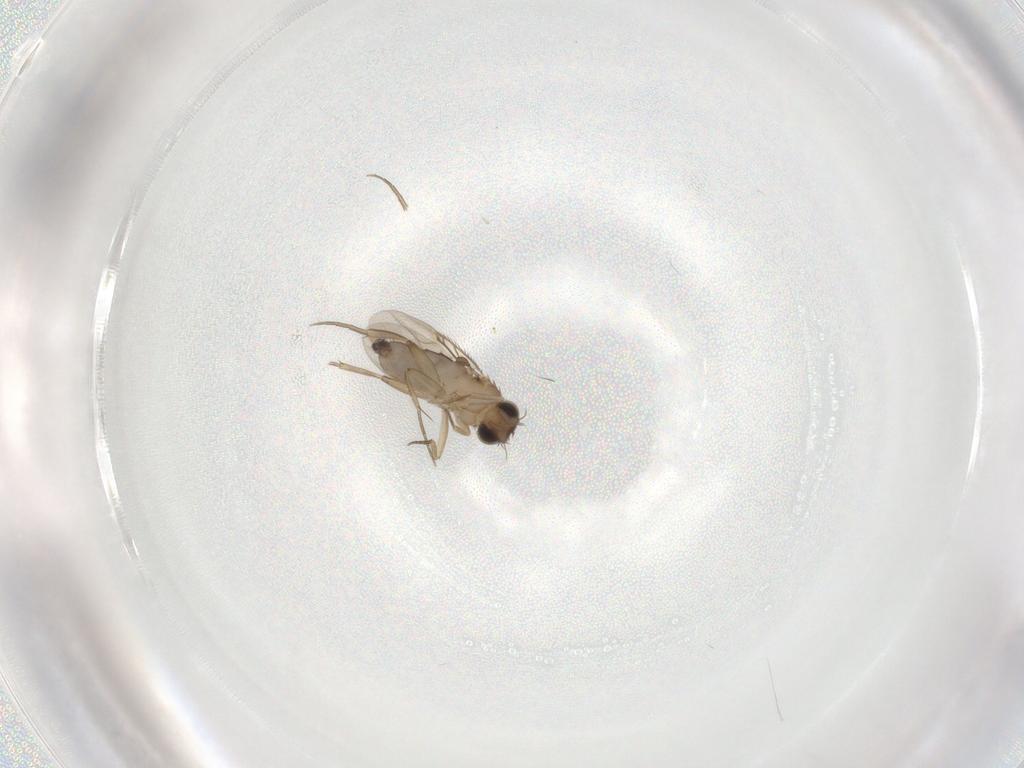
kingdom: Animalia
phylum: Arthropoda
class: Insecta
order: Diptera
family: Phoridae
